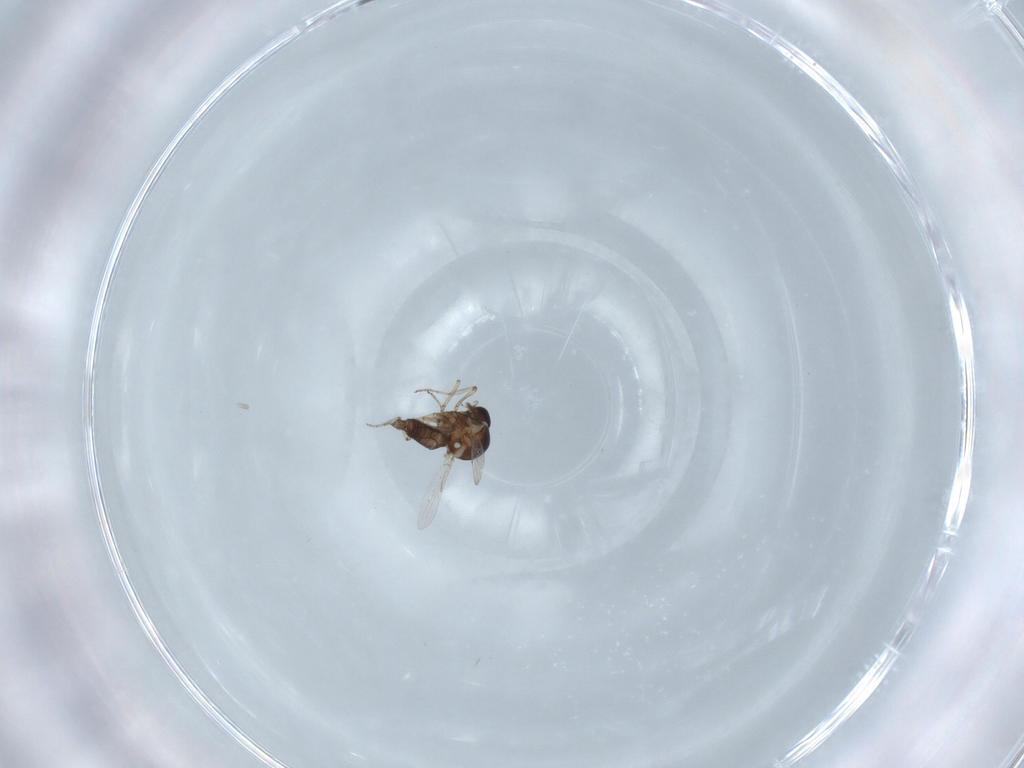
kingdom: Animalia
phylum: Arthropoda
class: Insecta
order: Diptera
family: Ceratopogonidae
